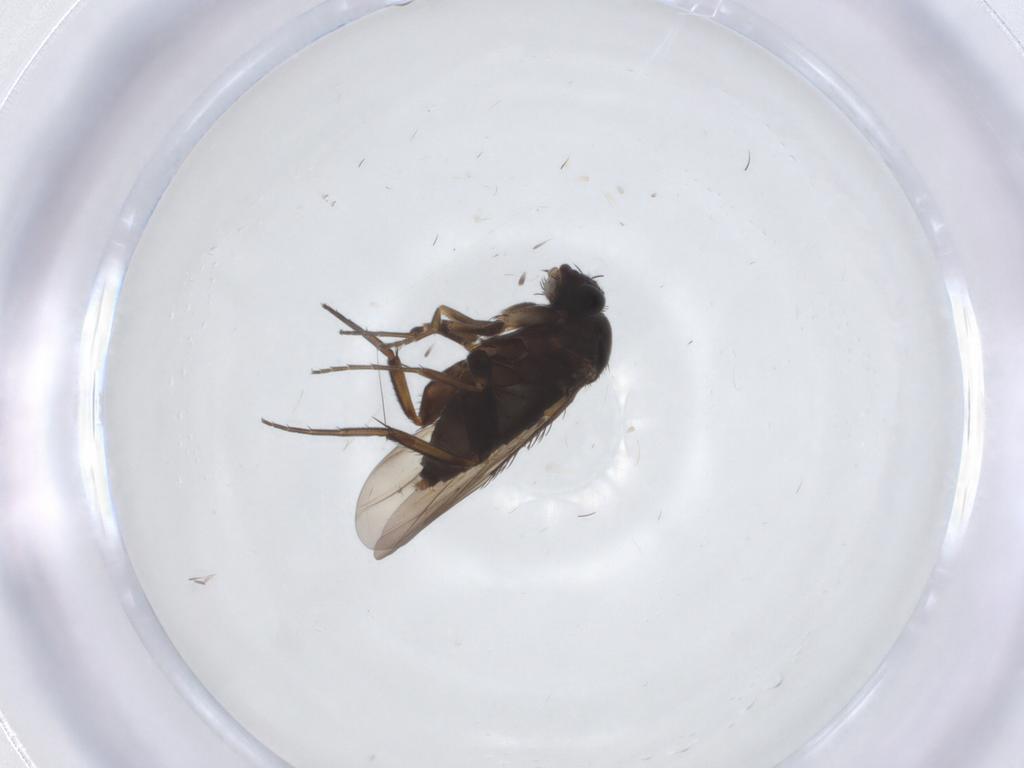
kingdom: Animalia
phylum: Arthropoda
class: Insecta
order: Diptera
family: Phoridae
